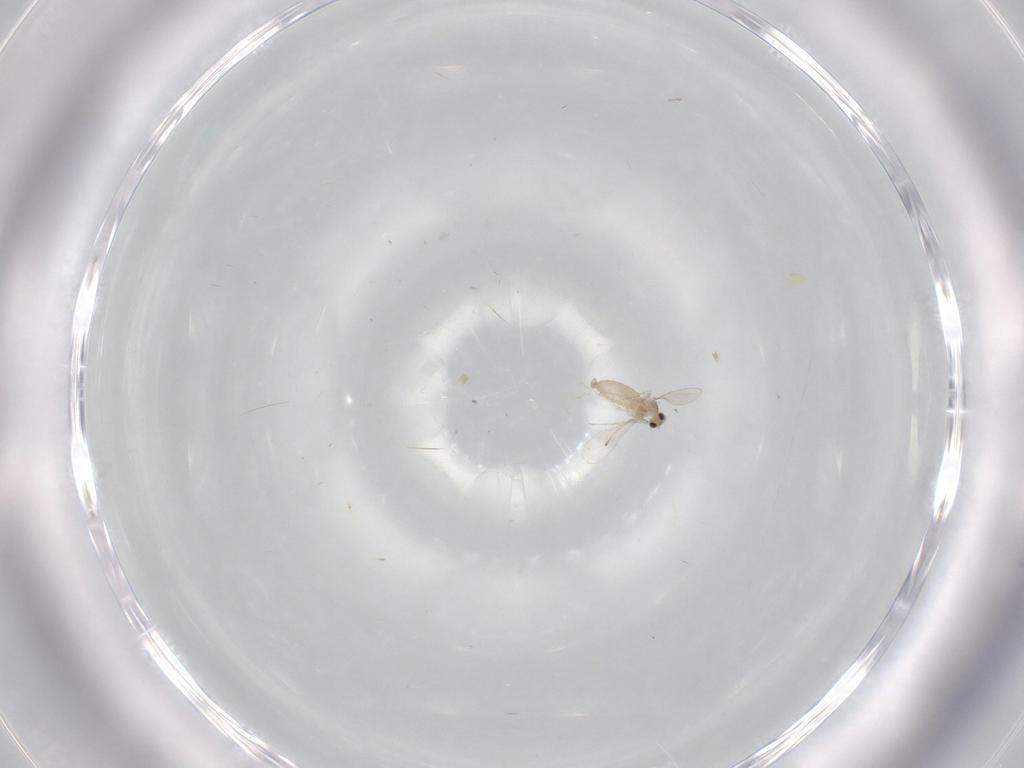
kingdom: Animalia
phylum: Arthropoda
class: Insecta
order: Diptera
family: Cecidomyiidae
